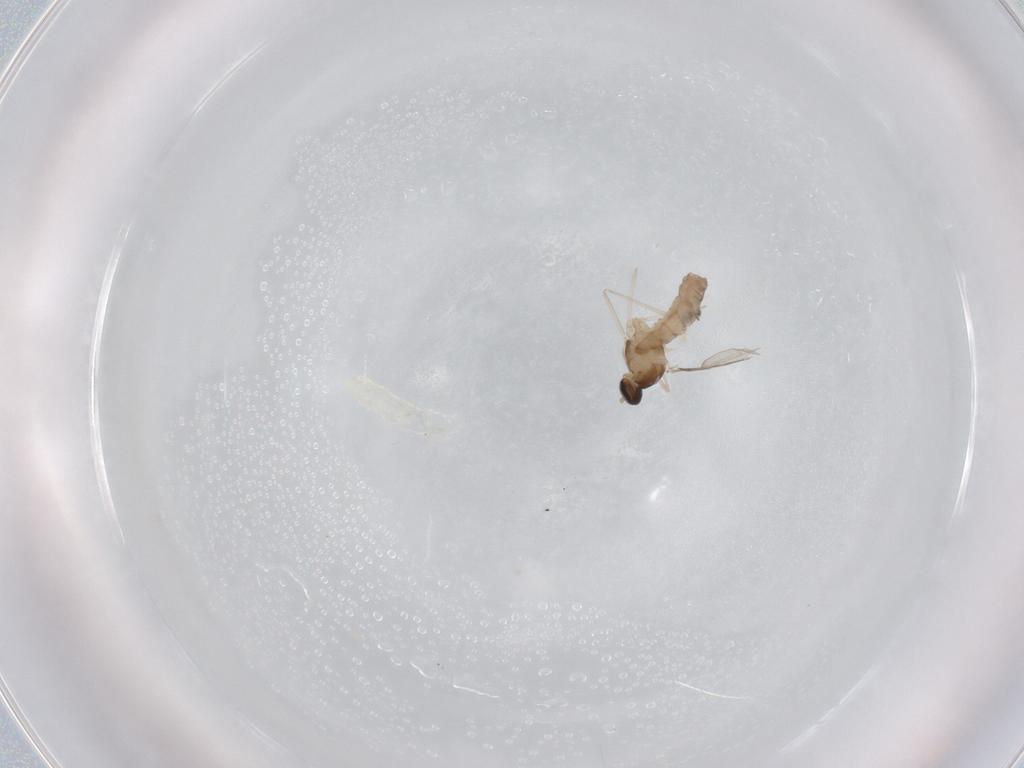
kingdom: Animalia
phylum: Arthropoda
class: Insecta
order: Diptera
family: Cecidomyiidae
